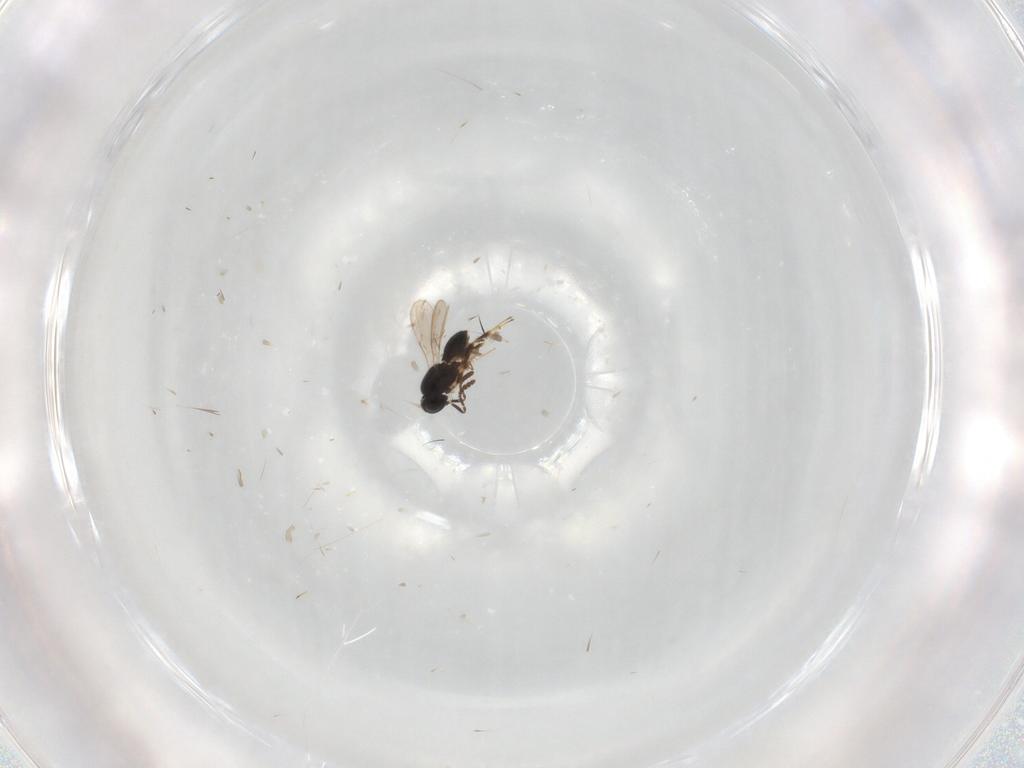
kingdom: Animalia
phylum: Arthropoda
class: Insecta
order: Hymenoptera
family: Scelionidae
